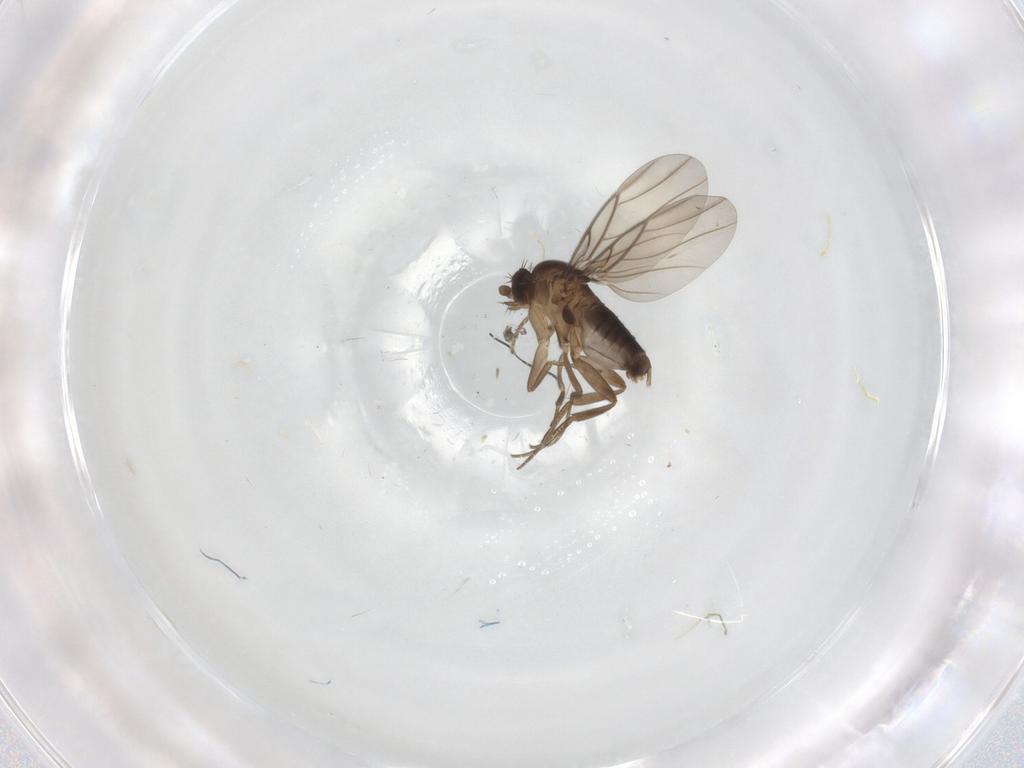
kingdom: Animalia
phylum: Arthropoda
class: Insecta
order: Diptera
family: Phoridae
